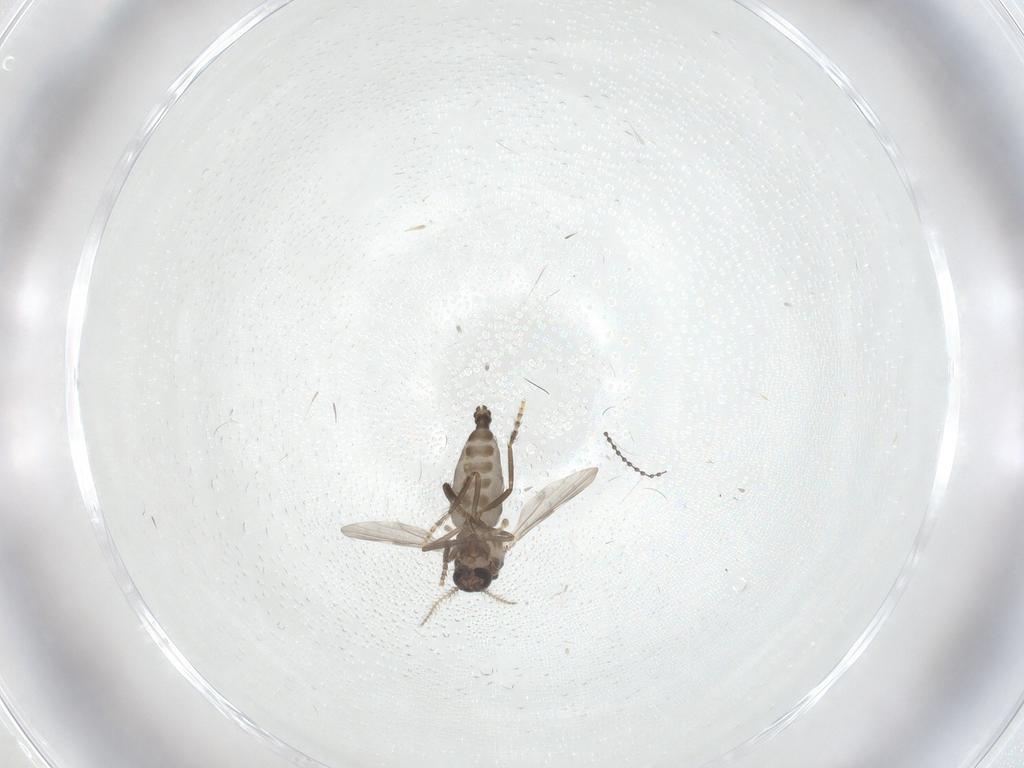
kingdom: Animalia
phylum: Arthropoda
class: Insecta
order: Diptera
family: Ceratopogonidae
